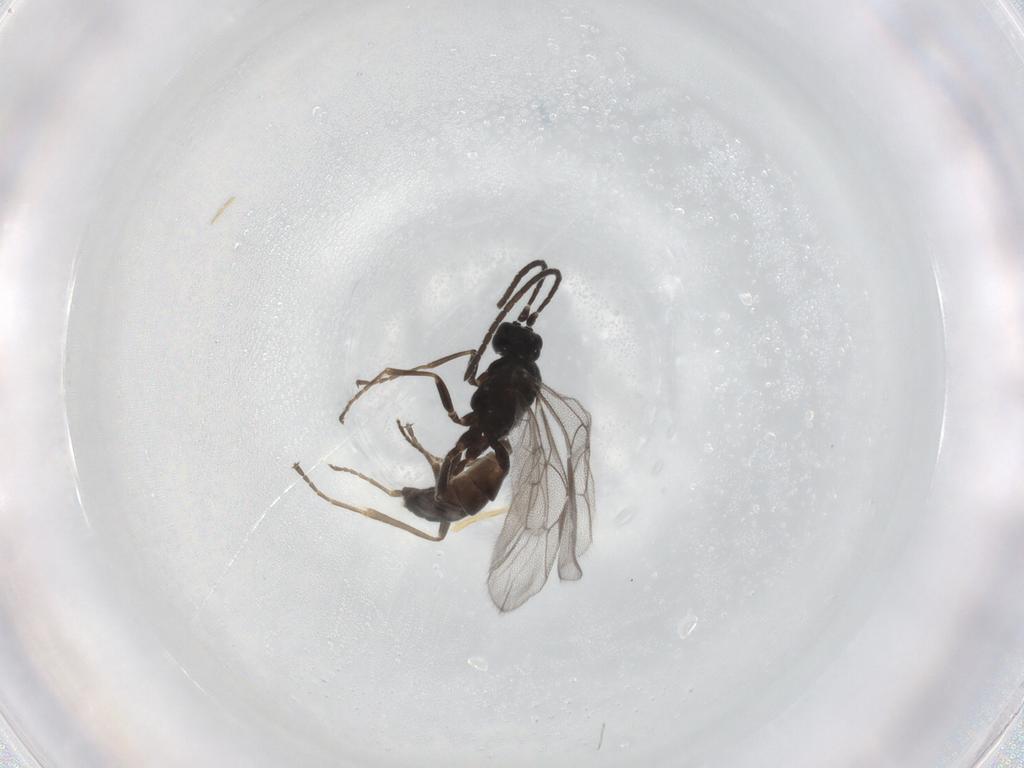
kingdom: Animalia
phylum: Arthropoda
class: Insecta
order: Hymenoptera
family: Ichneumonidae
